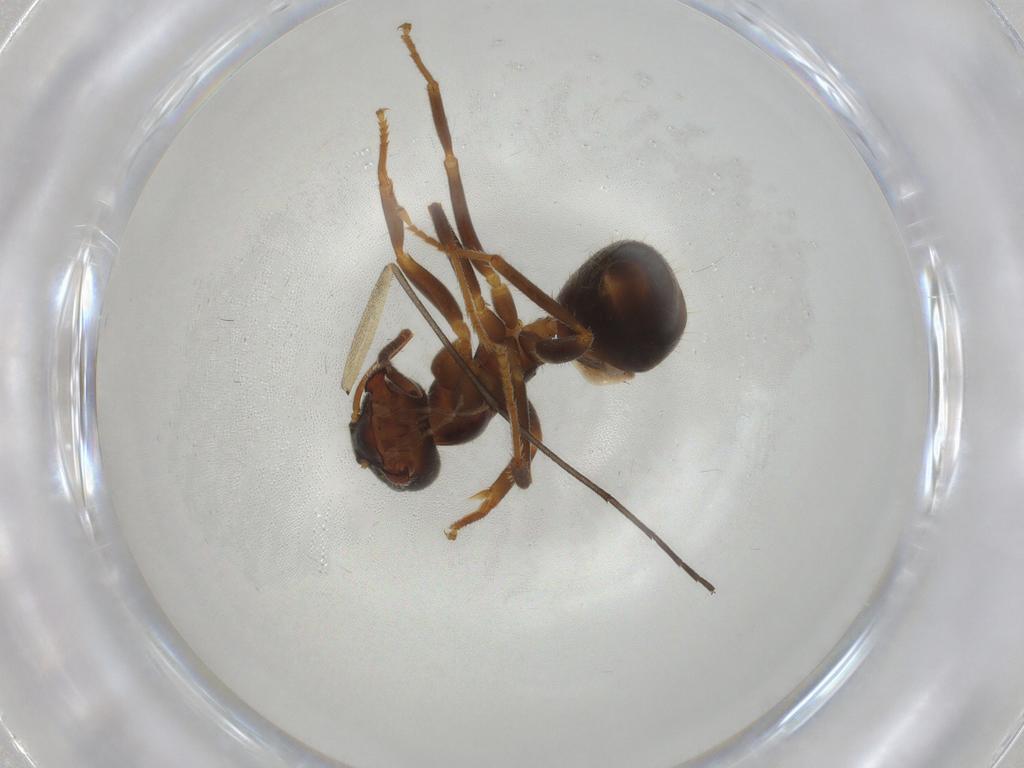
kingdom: Animalia
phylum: Arthropoda
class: Insecta
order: Hymenoptera
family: Formicidae
